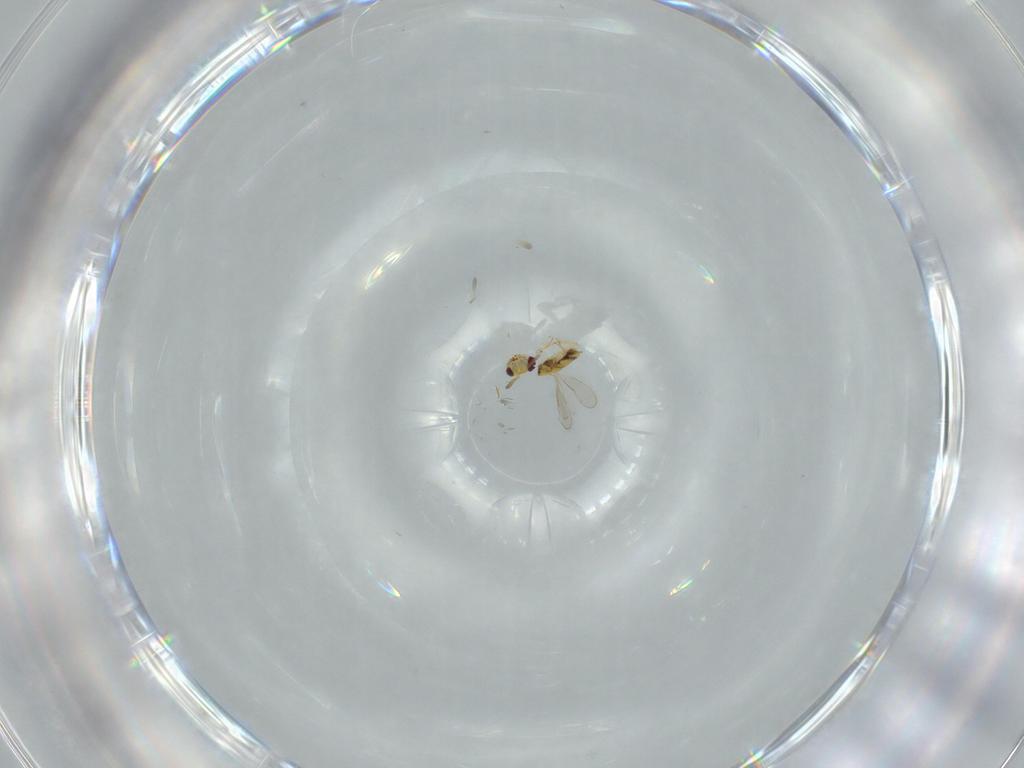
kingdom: Animalia
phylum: Arthropoda
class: Insecta
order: Hymenoptera
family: Aphelinidae
